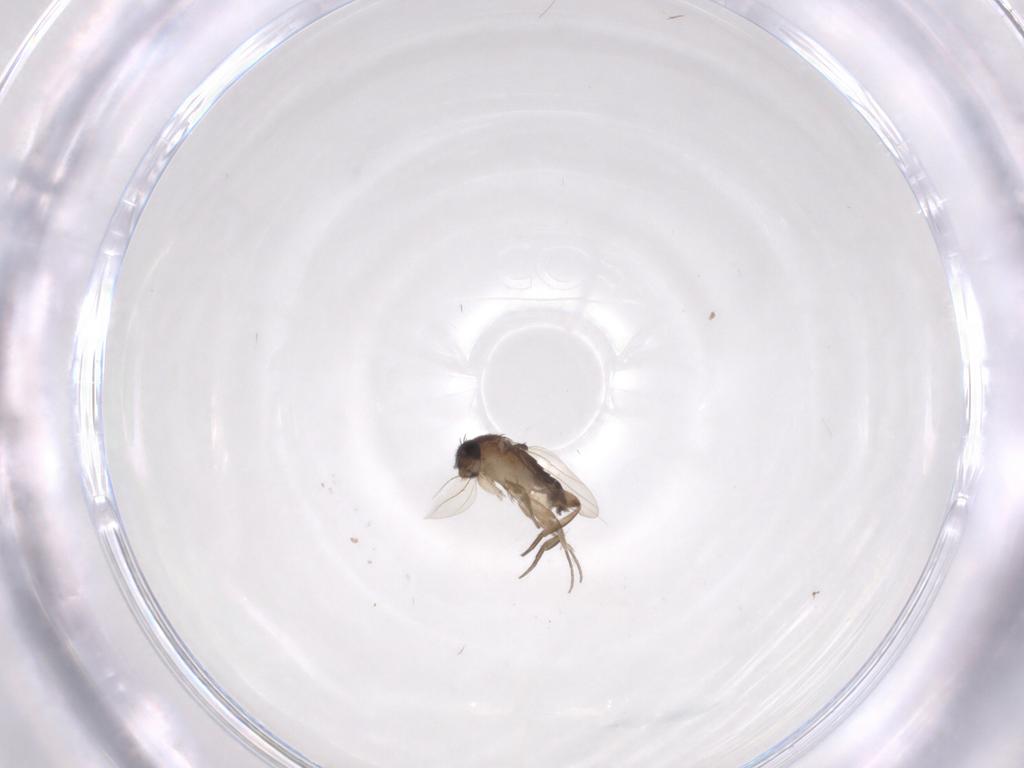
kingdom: Animalia
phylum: Arthropoda
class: Insecta
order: Diptera
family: Phoridae
